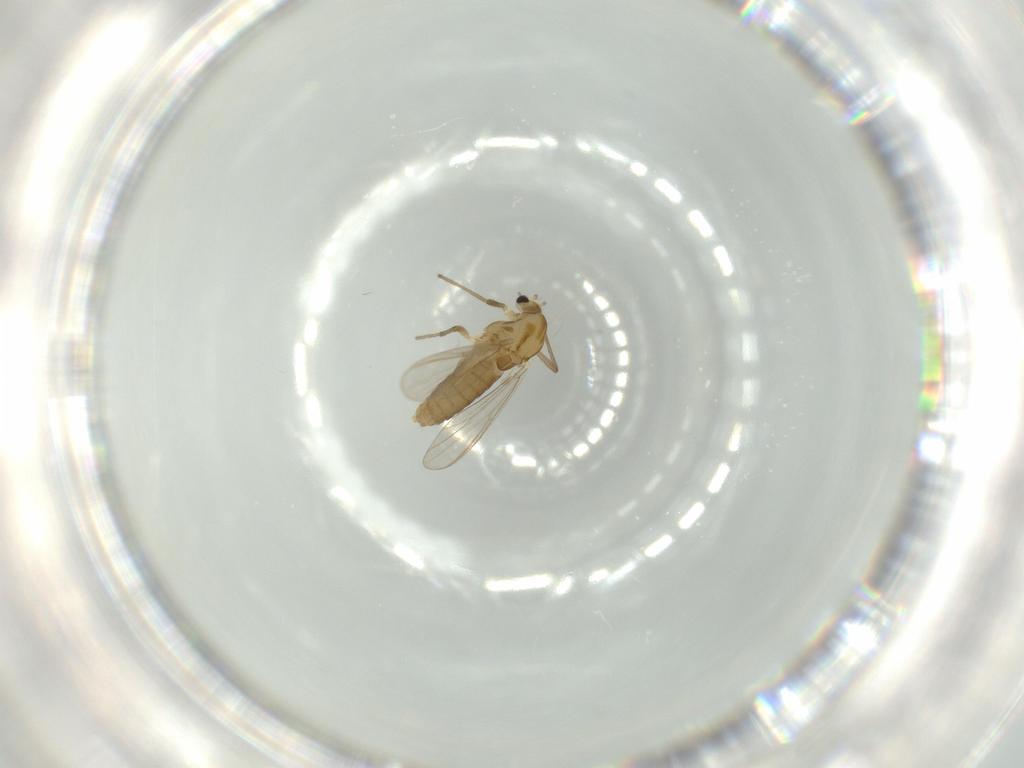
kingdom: Animalia
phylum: Arthropoda
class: Insecta
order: Diptera
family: Chironomidae
